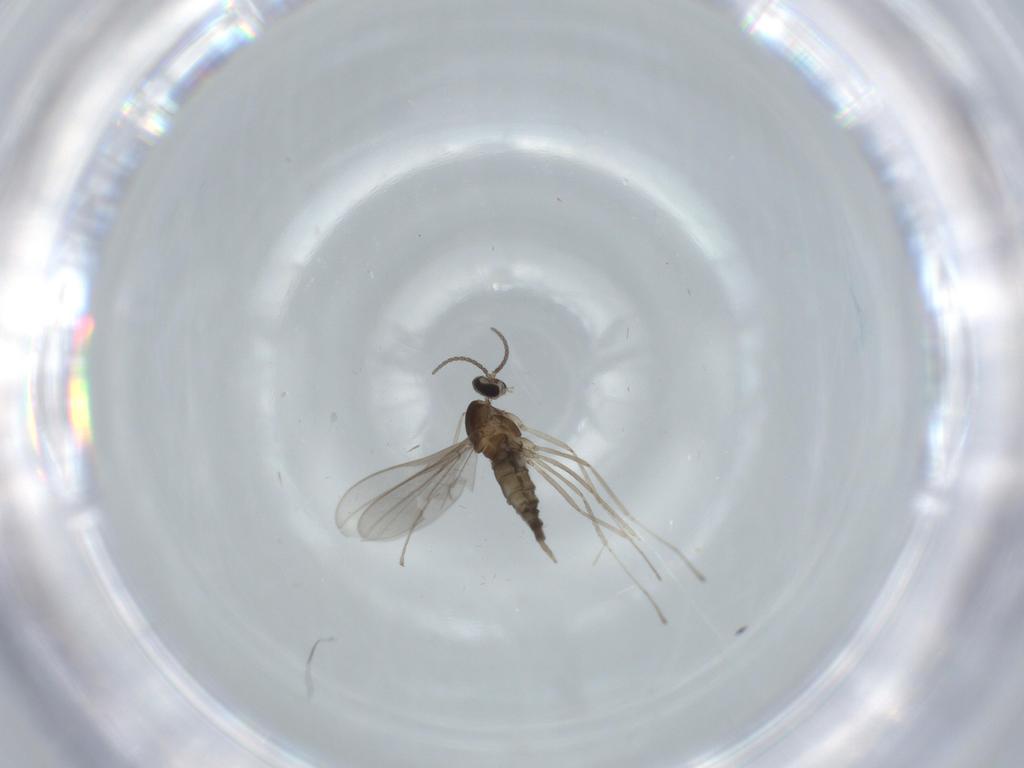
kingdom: Animalia
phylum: Arthropoda
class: Insecta
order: Diptera
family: Cecidomyiidae
